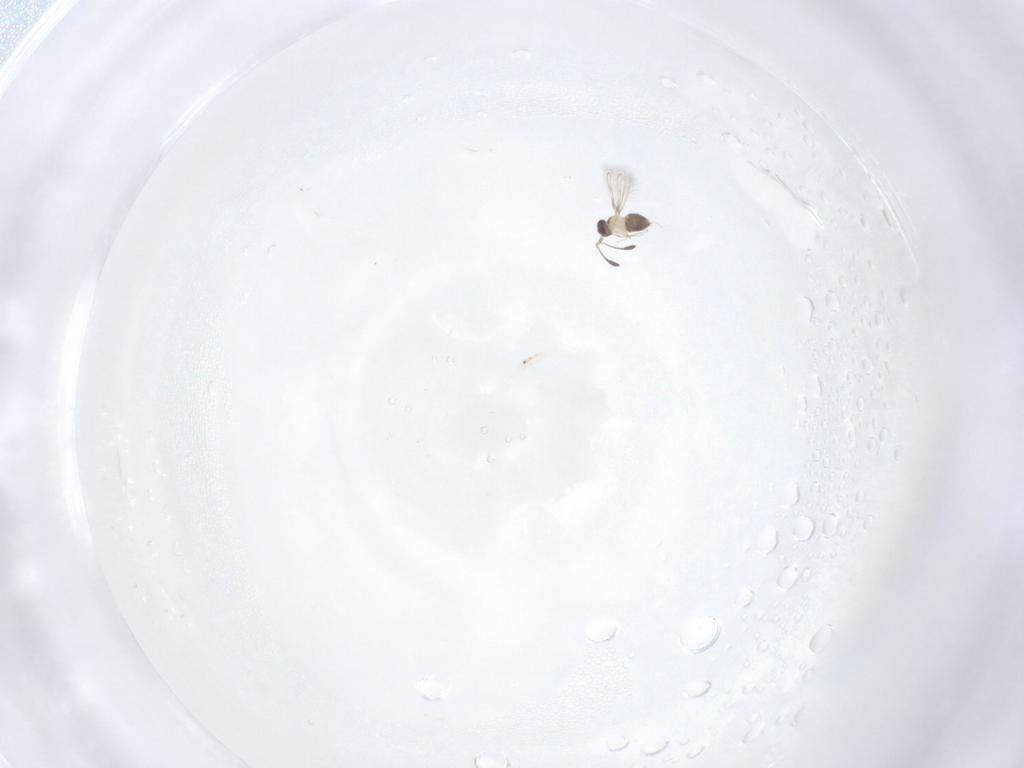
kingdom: Animalia
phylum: Arthropoda
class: Insecta
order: Hymenoptera
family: Mymaridae
